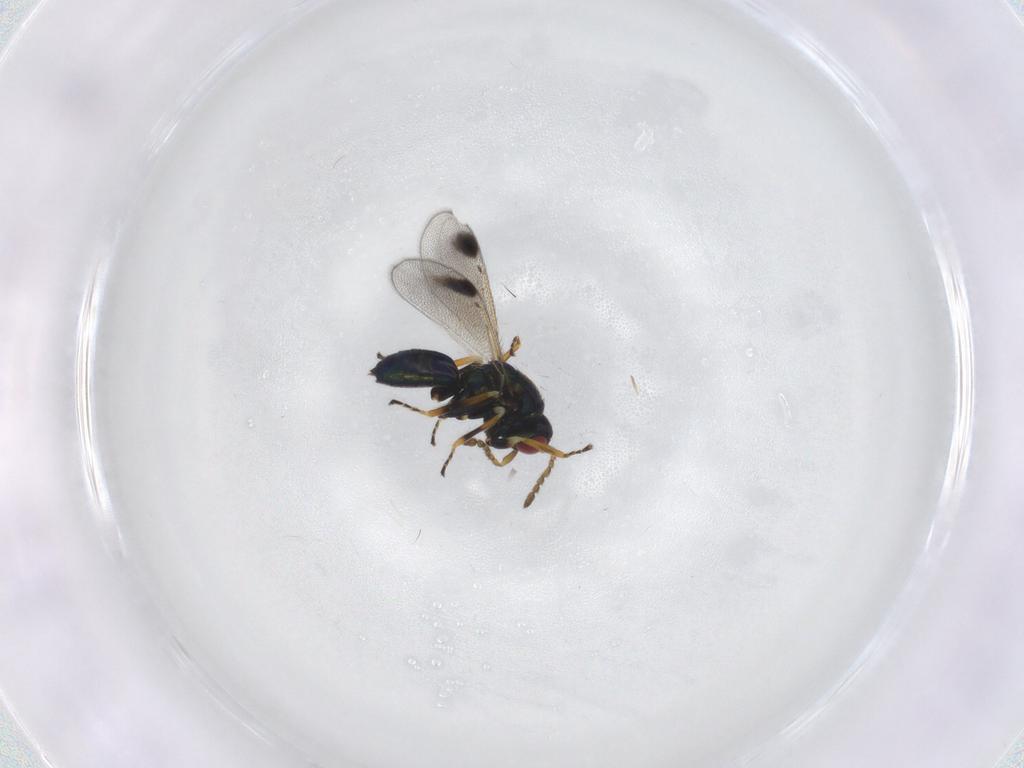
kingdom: Animalia
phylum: Arthropoda
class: Insecta
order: Hymenoptera
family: Eulophidae
